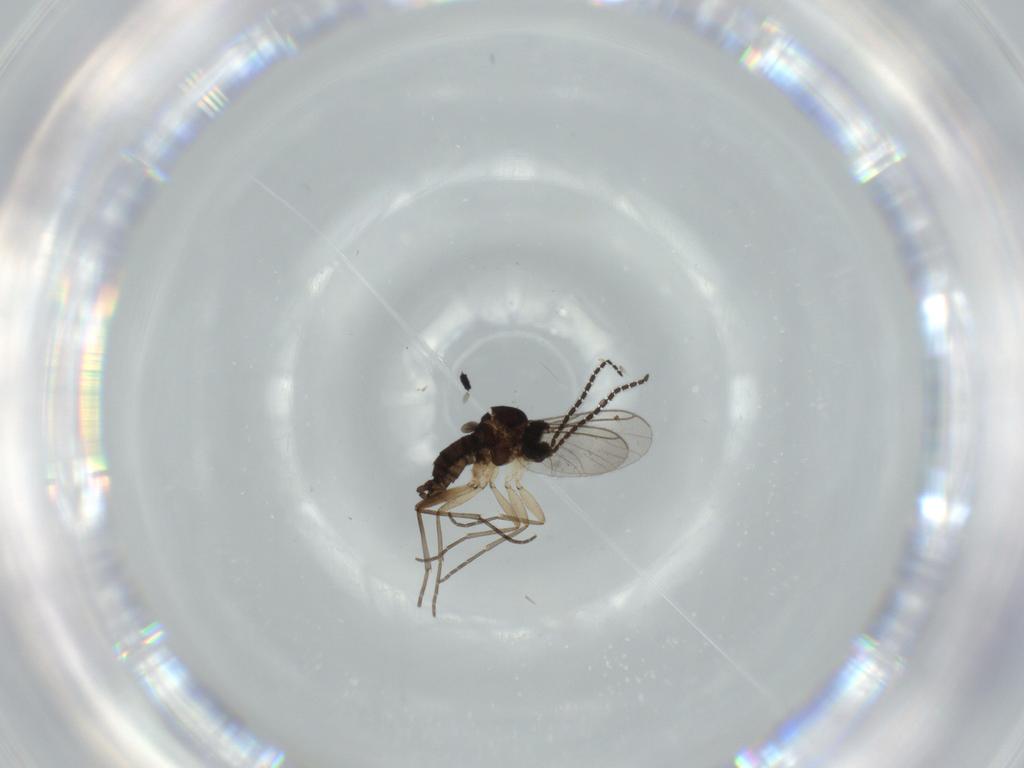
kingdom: Animalia
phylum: Arthropoda
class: Insecta
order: Diptera
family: Sciaridae
